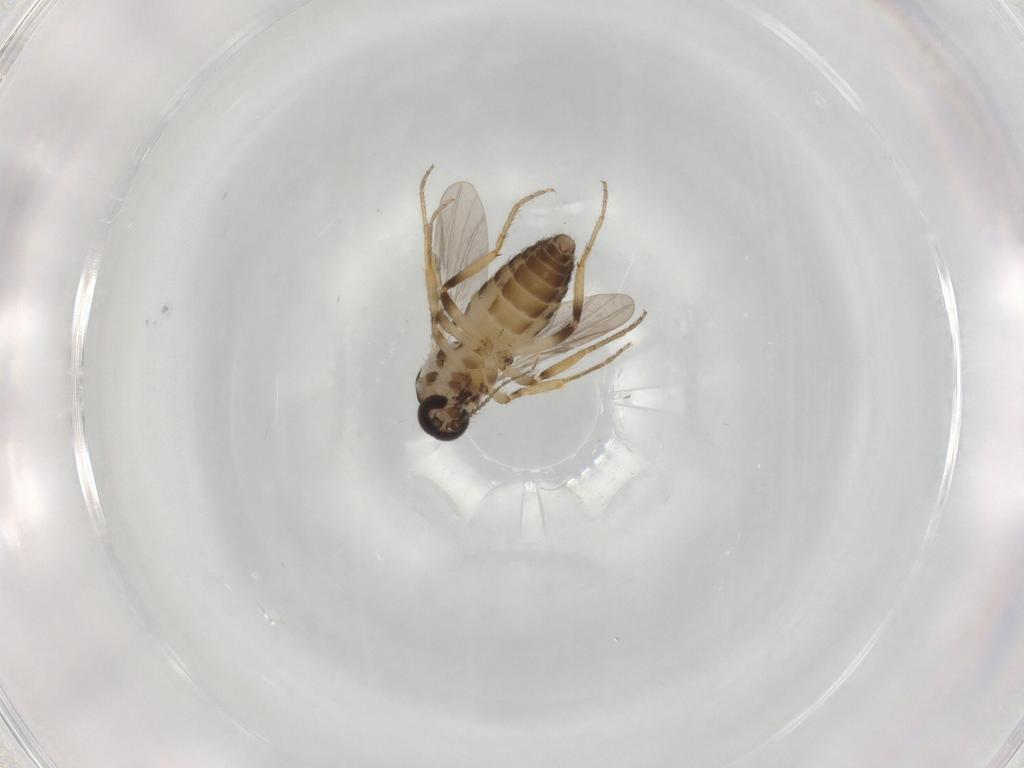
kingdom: Animalia
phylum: Arthropoda
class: Insecta
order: Diptera
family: Dolichopodidae
